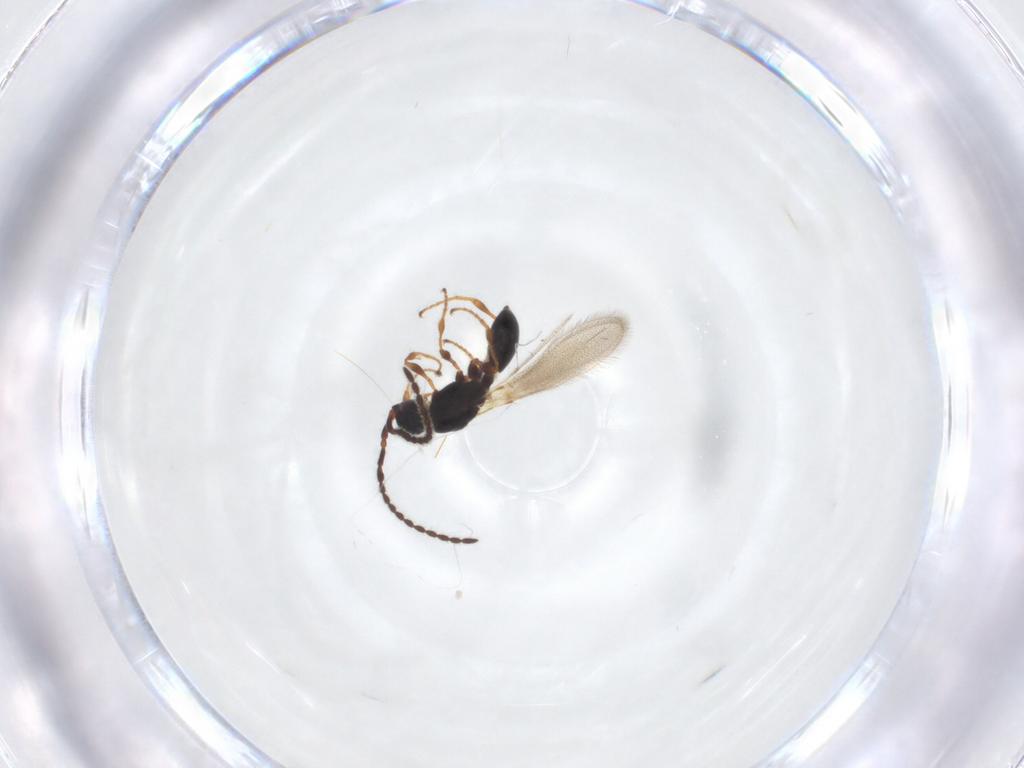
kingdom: Animalia
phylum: Arthropoda
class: Insecta
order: Hymenoptera
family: Diapriidae
